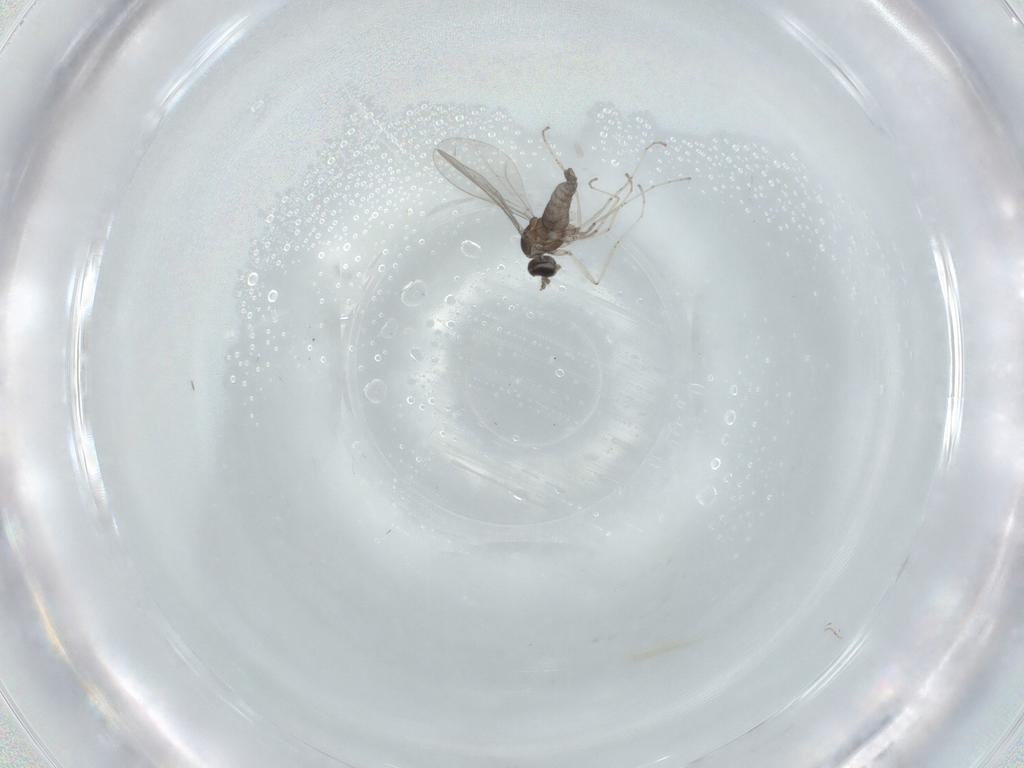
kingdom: Animalia
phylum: Arthropoda
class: Insecta
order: Diptera
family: Cecidomyiidae
